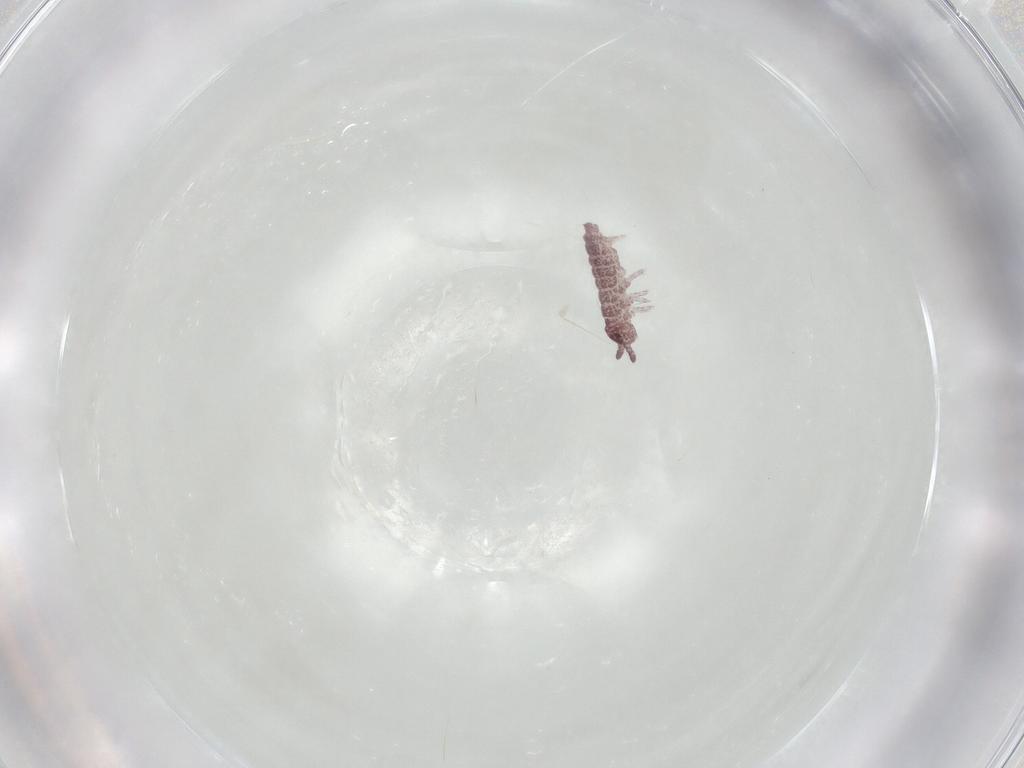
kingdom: Animalia
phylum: Arthropoda
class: Collembola
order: Poduromorpha
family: Hypogastruridae
